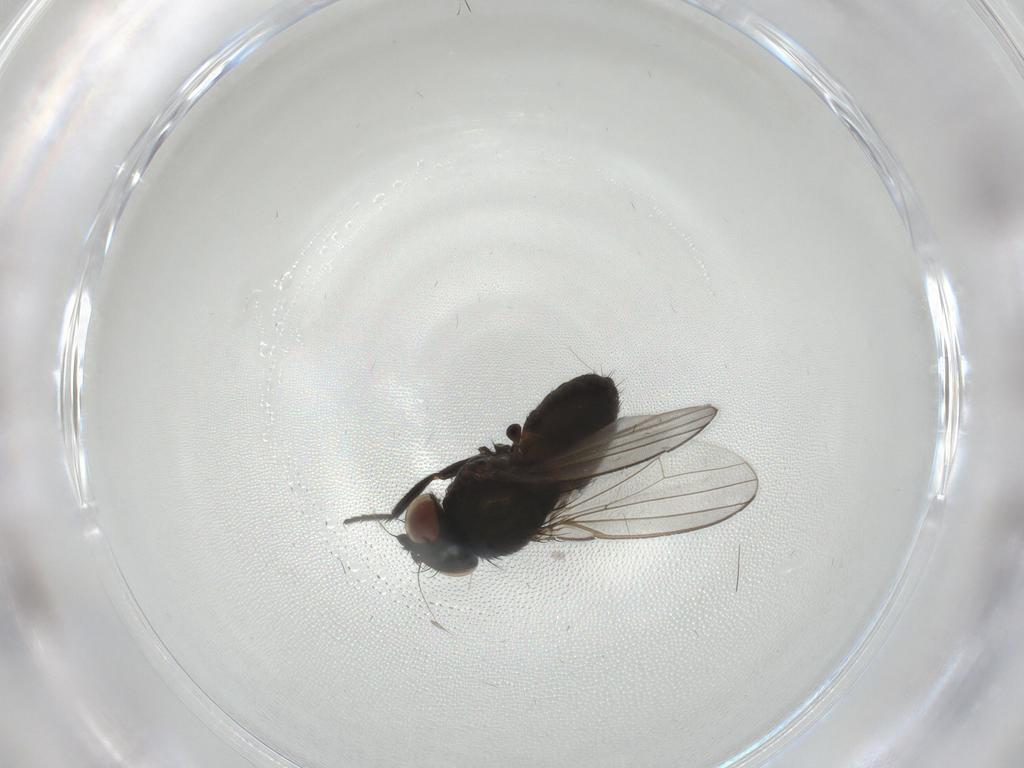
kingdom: Animalia
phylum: Arthropoda
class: Insecta
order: Diptera
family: Milichiidae
